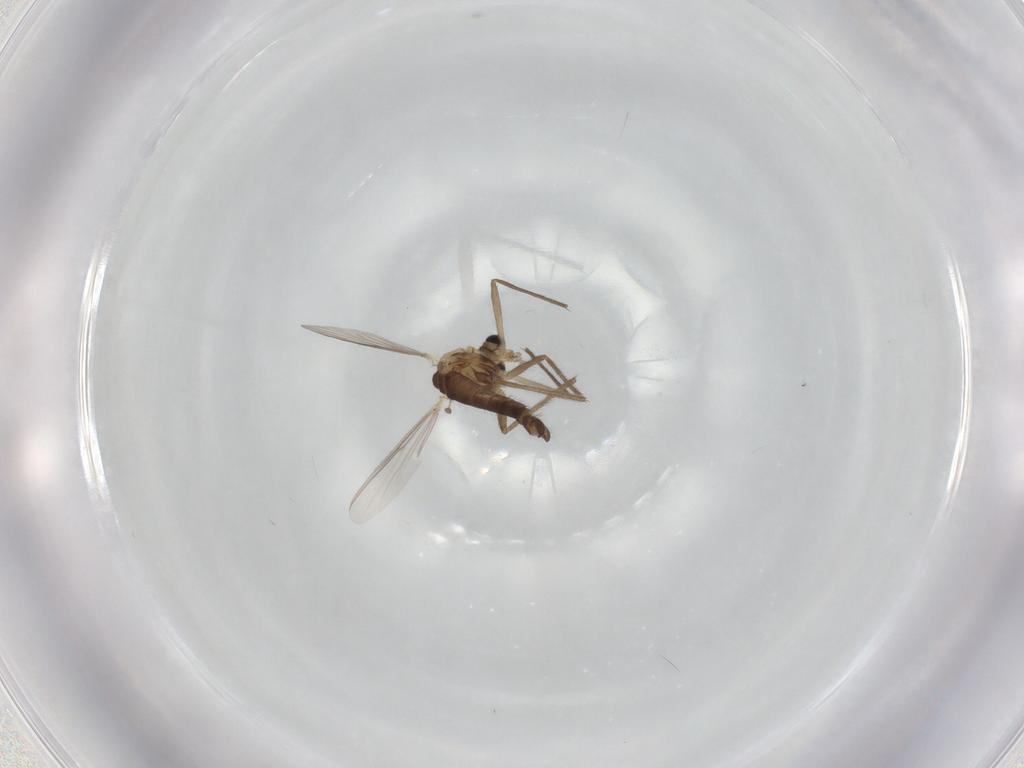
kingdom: Animalia
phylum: Arthropoda
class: Insecta
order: Diptera
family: Chironomidae
